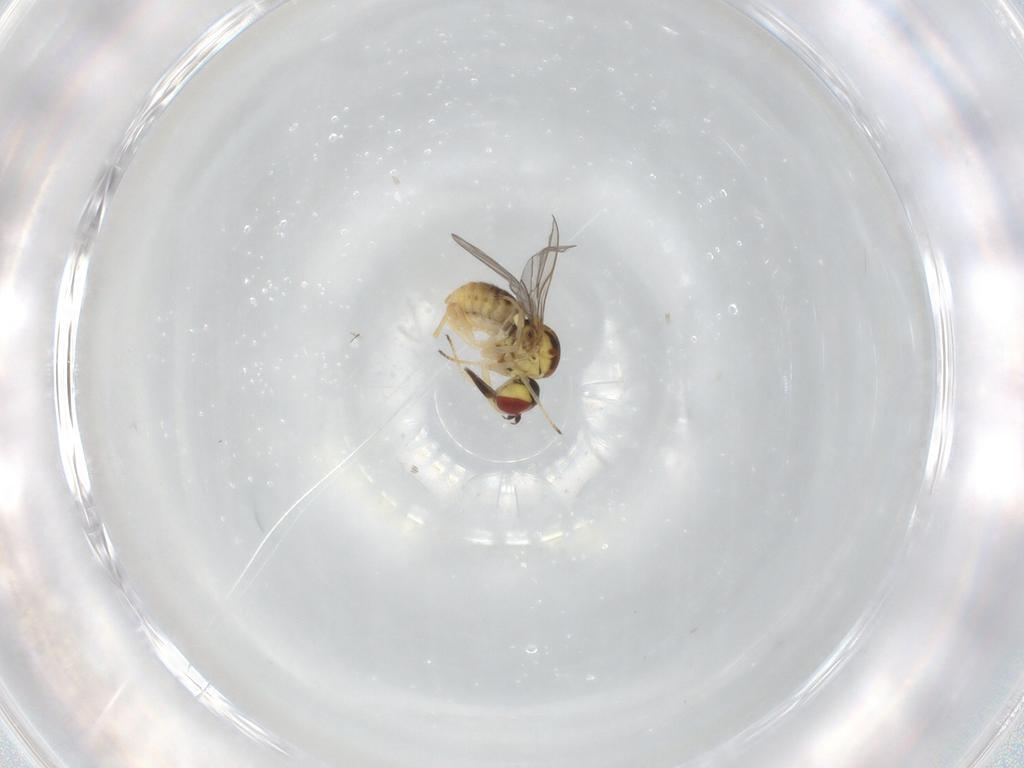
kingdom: Animalia
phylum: Arthropoda
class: Insecta
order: Diptera
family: Bombyliidae
